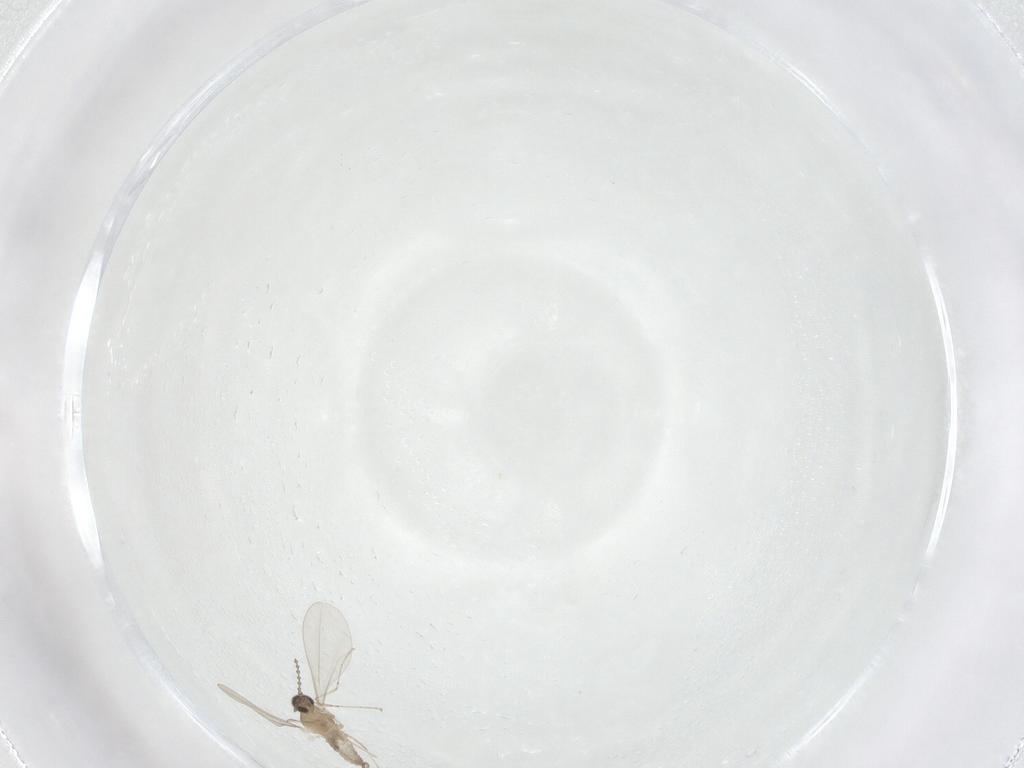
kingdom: Animalia
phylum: Arthropoda
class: Insecta
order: Diptera
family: Cecidomyiidae
